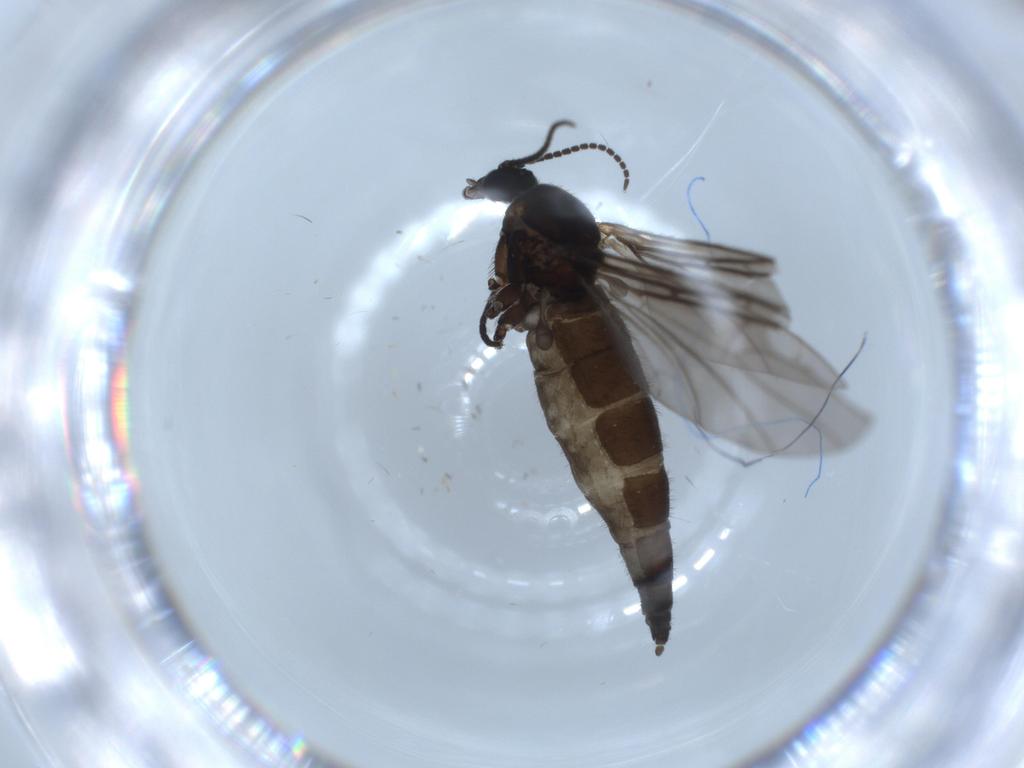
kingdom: Animalia
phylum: Arthropoda
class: Insecta
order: Diptera
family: Sciaridae
